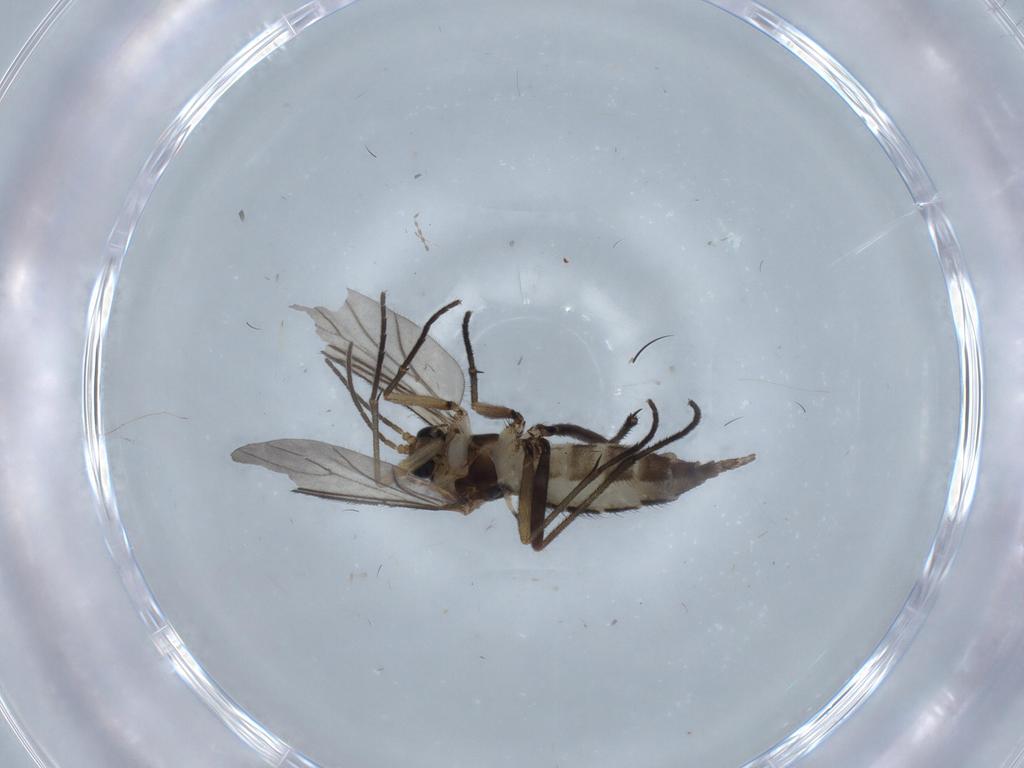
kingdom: Animalia
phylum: Arthropoda
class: Insecta
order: Diptera
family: Sciaridae
